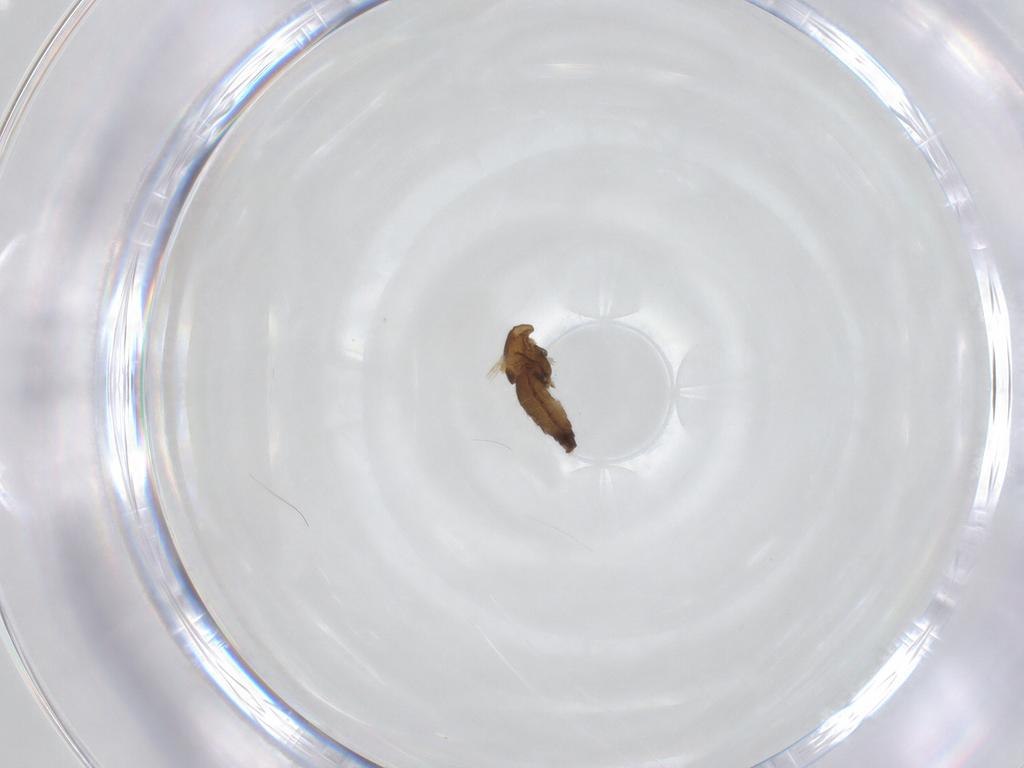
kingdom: Animalia
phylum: Arthropoda
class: Insecta
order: Diptera
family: Chironomidae
